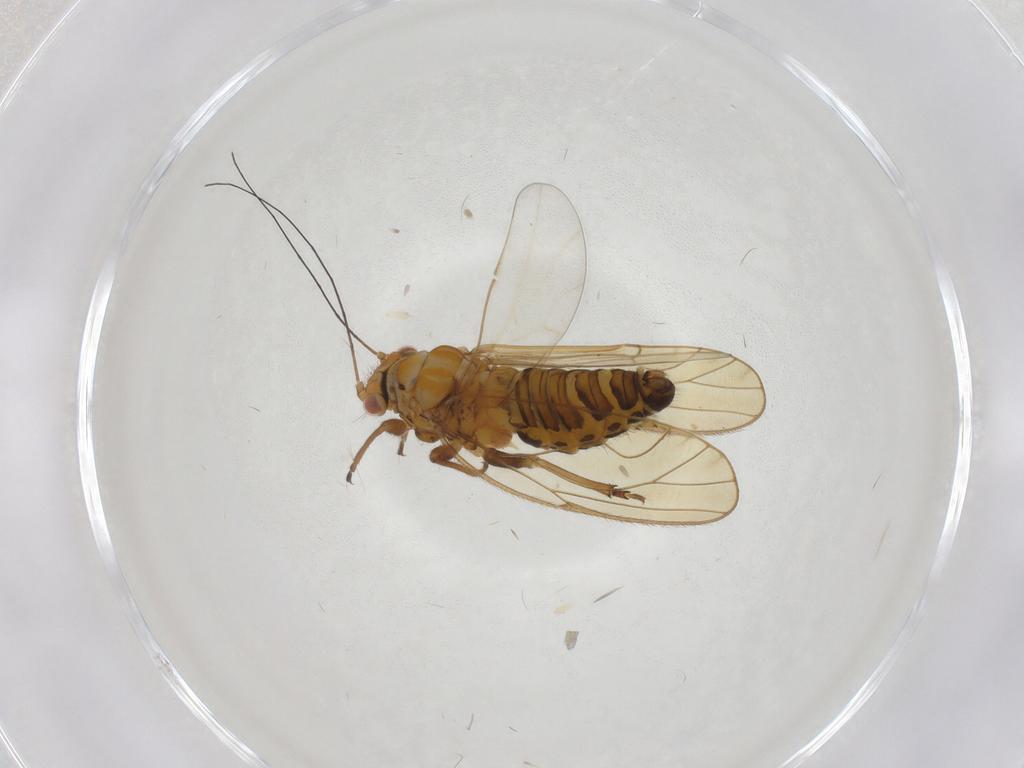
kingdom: Animalia
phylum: Arthropoda
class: Insecta
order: Hemiptera
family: Psyllidae
